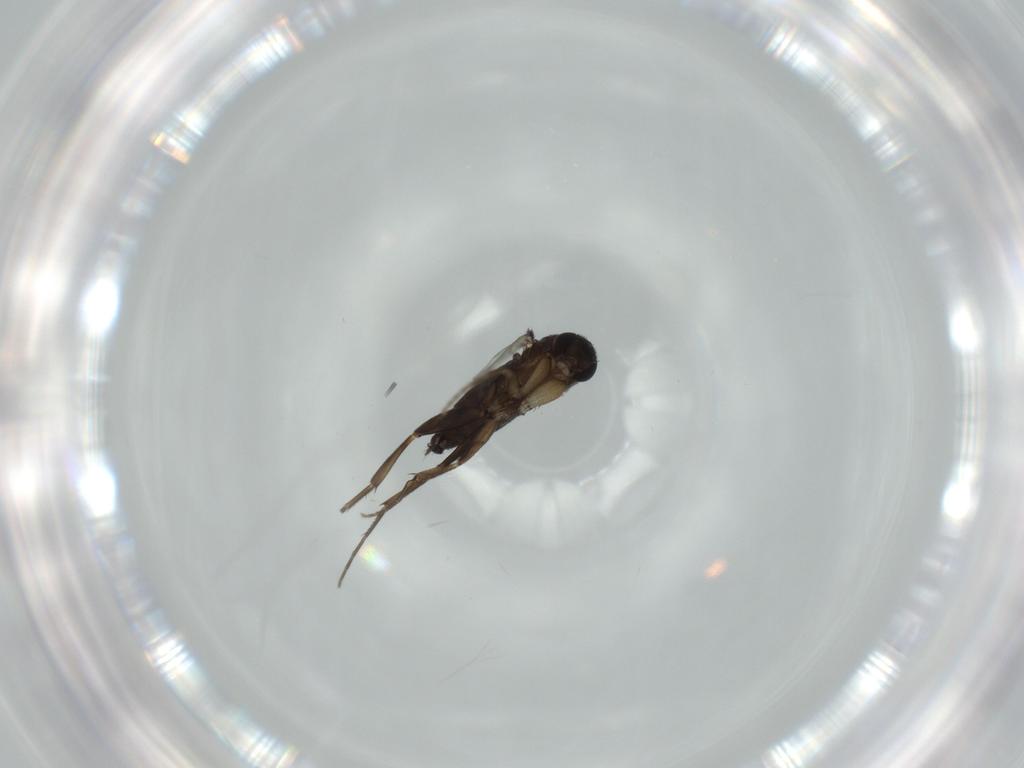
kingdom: Animalia
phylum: Arthropoda
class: Insecta
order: Diptera
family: Phoridae
